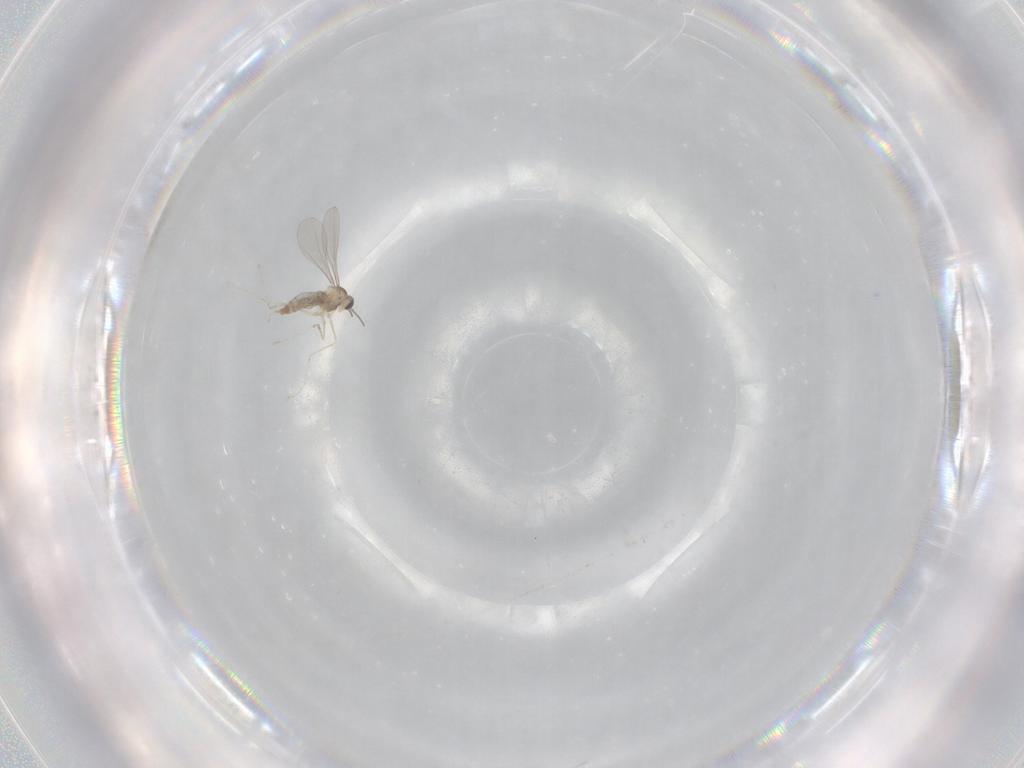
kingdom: Animalia
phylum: Arthropoda
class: Insecta
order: Diptera
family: Cecidomyiidae
